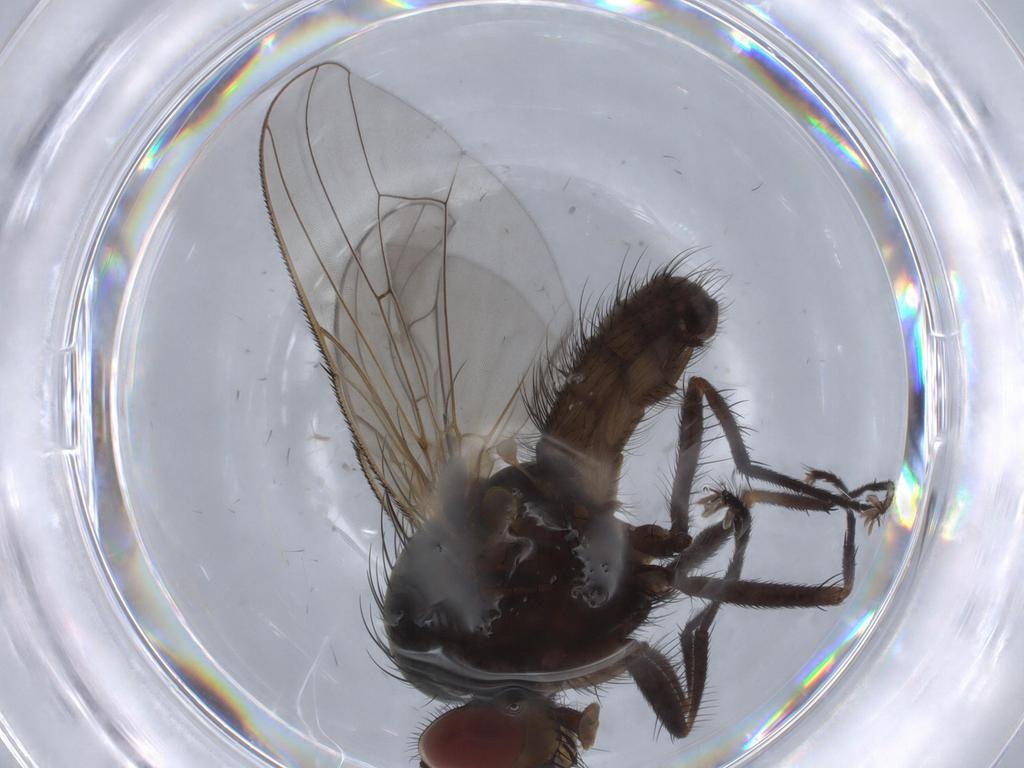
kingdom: Animalia
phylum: Arthropoda
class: Insecta
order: Diptera
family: Anthomyiidae
